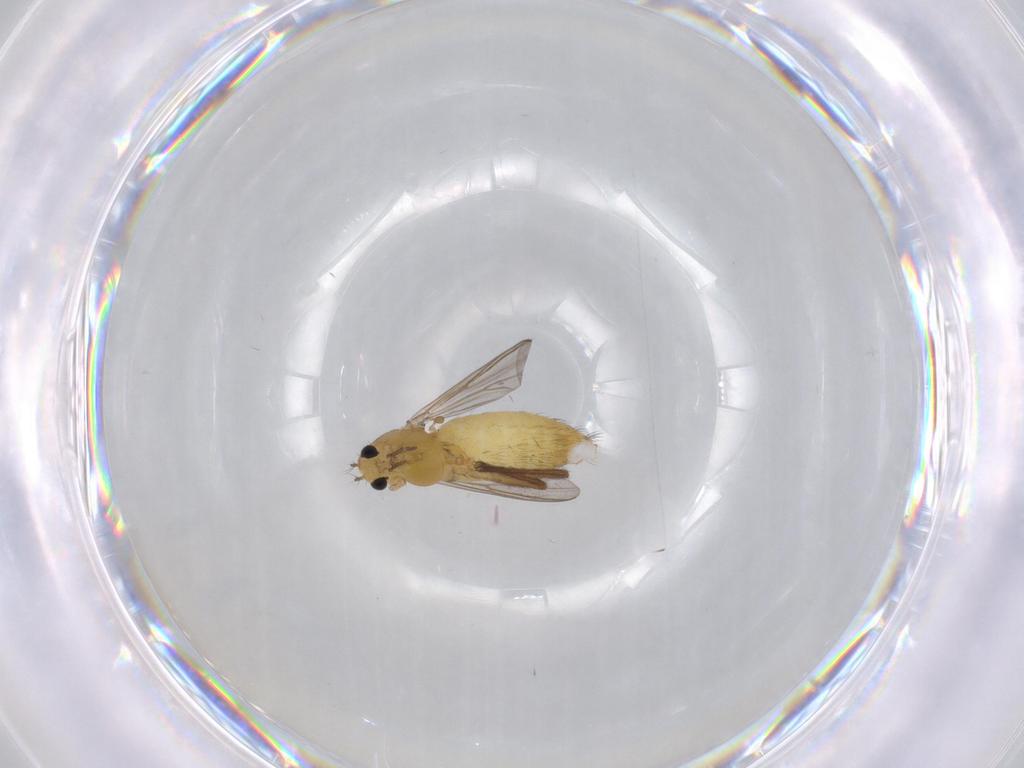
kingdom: Animalia
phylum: Arthropoda
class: Insecta
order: Diptera
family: Chironomidae
